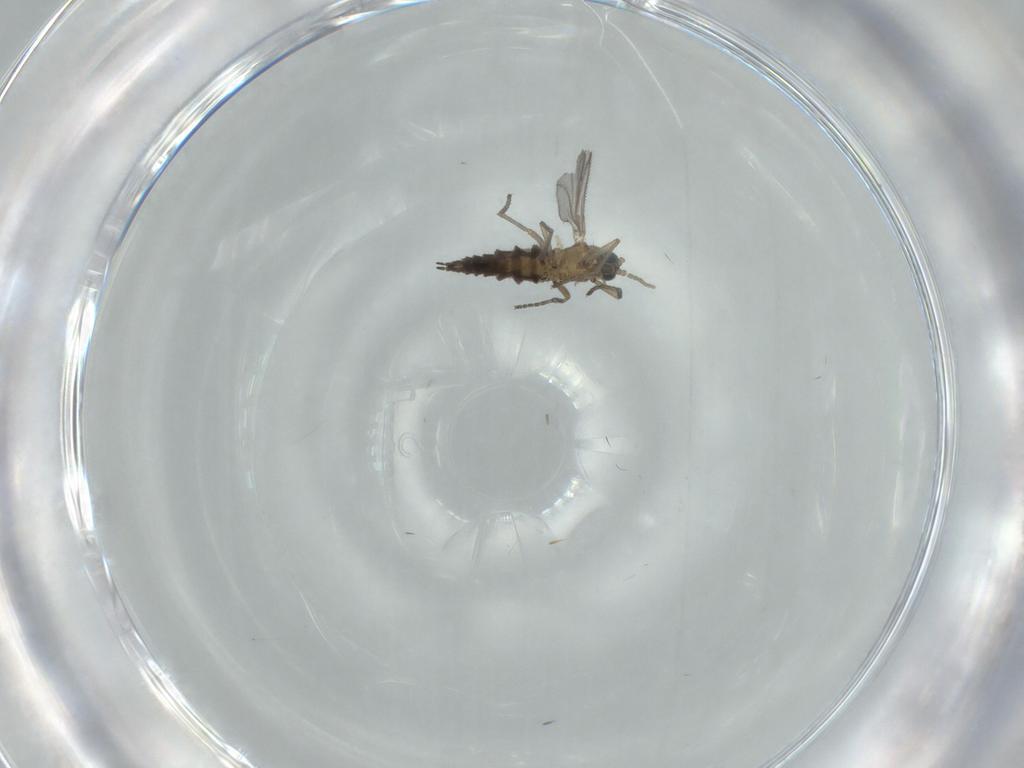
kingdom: Animalia
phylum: Arthropoda
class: Insecta
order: Diptera
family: Sciaridae
